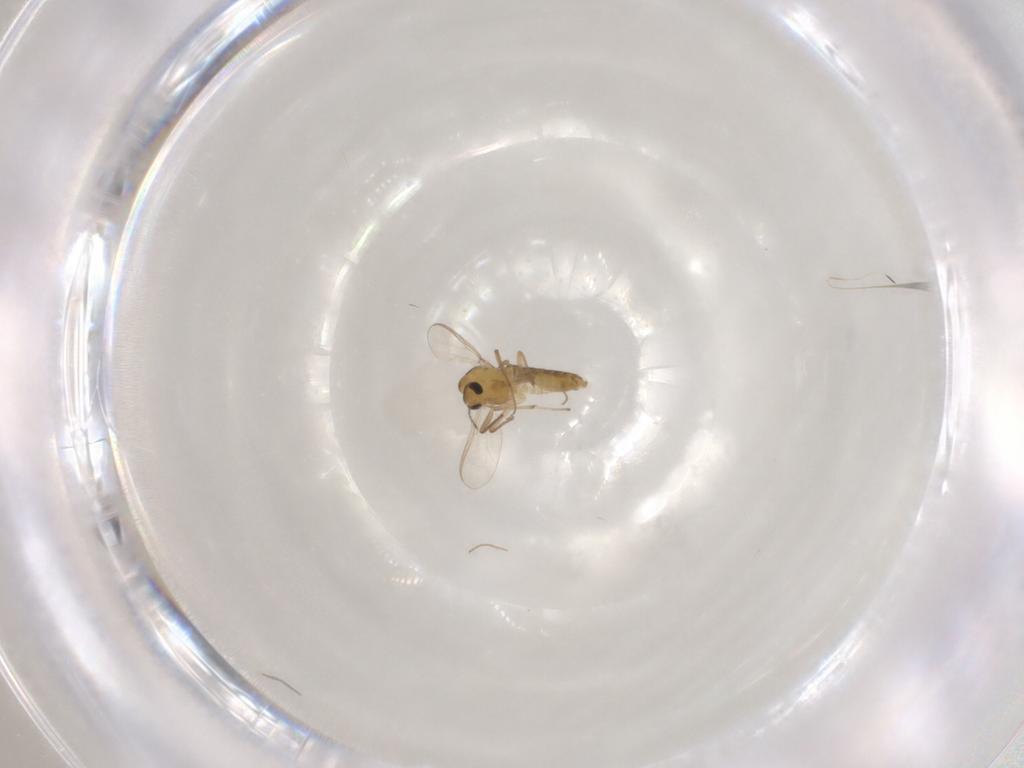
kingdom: Animalia
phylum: Arthropoda
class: Insecta
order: Diptera
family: Chironomidae
